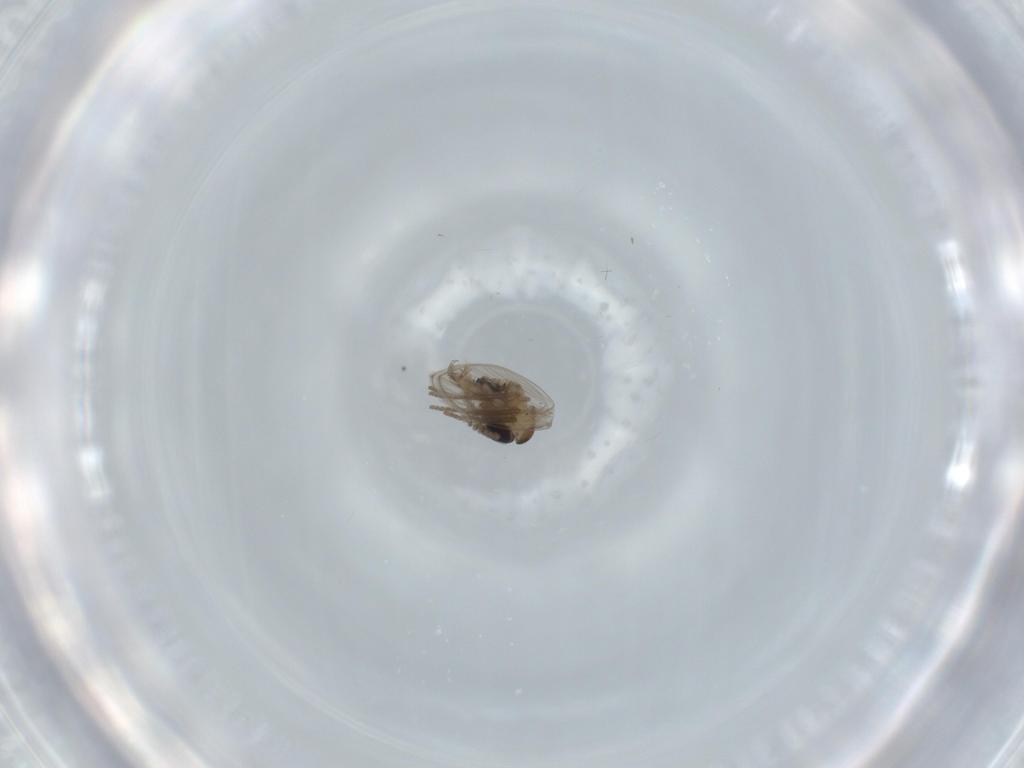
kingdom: Animalia
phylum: Arthropoda
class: Insecta
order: Diptera
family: Psychodidae
